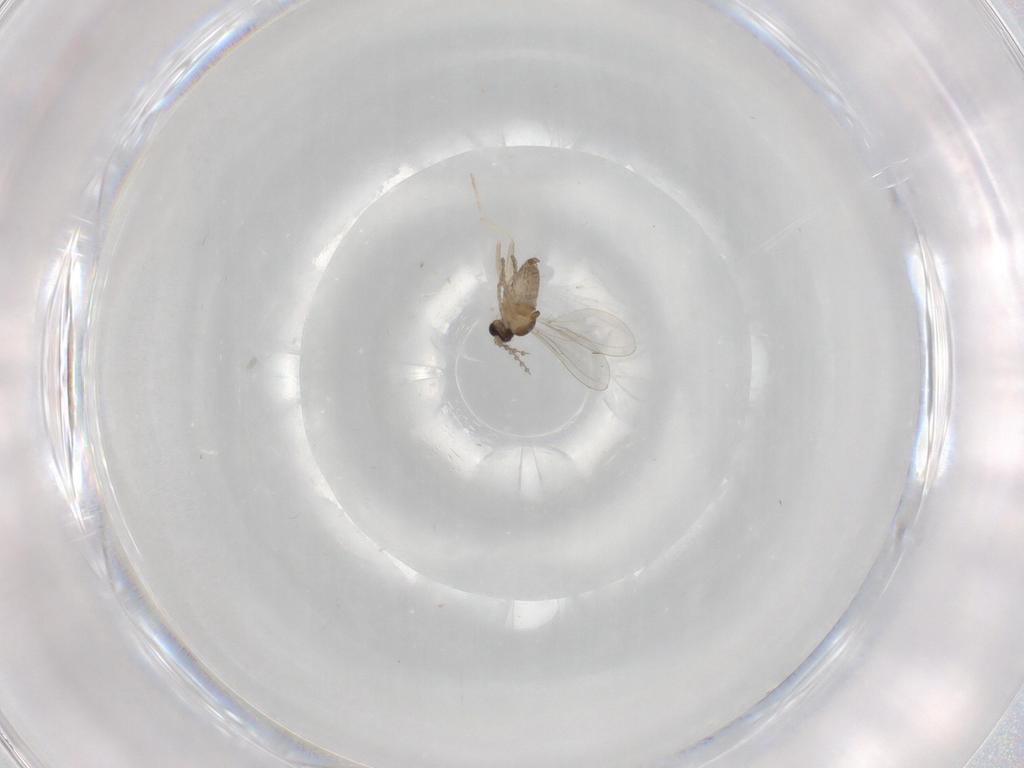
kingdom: Animalia
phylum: Arthropoda
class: Insecta
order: Diptera
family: Cecidomyiidae
